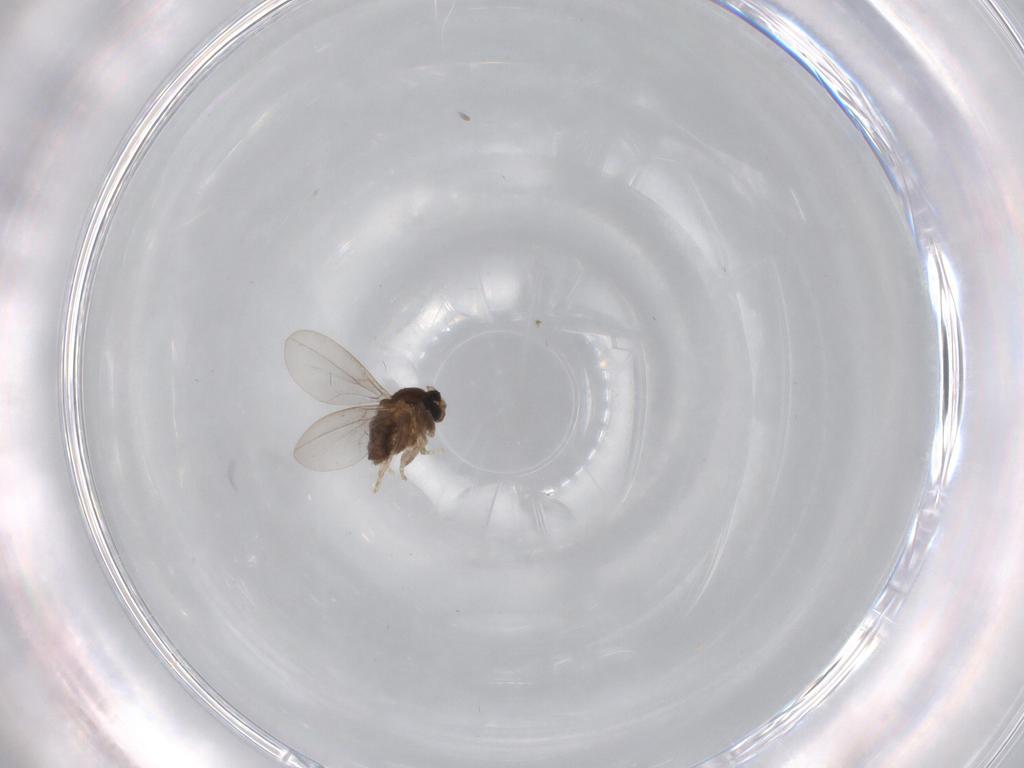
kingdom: Animalia
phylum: Arthropoda
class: Insecta
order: Diptera
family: Cecidomyiidae
